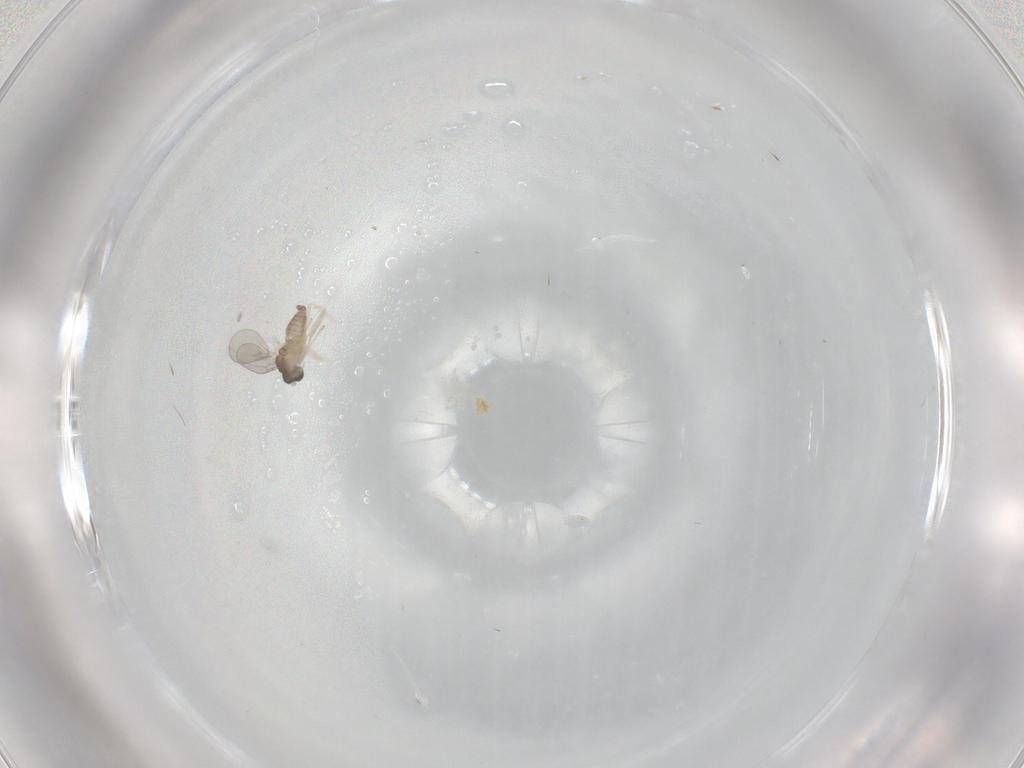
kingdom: Animalia
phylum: Arthropoda
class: Insecta
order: Diptera
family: Cecidomyiidae
